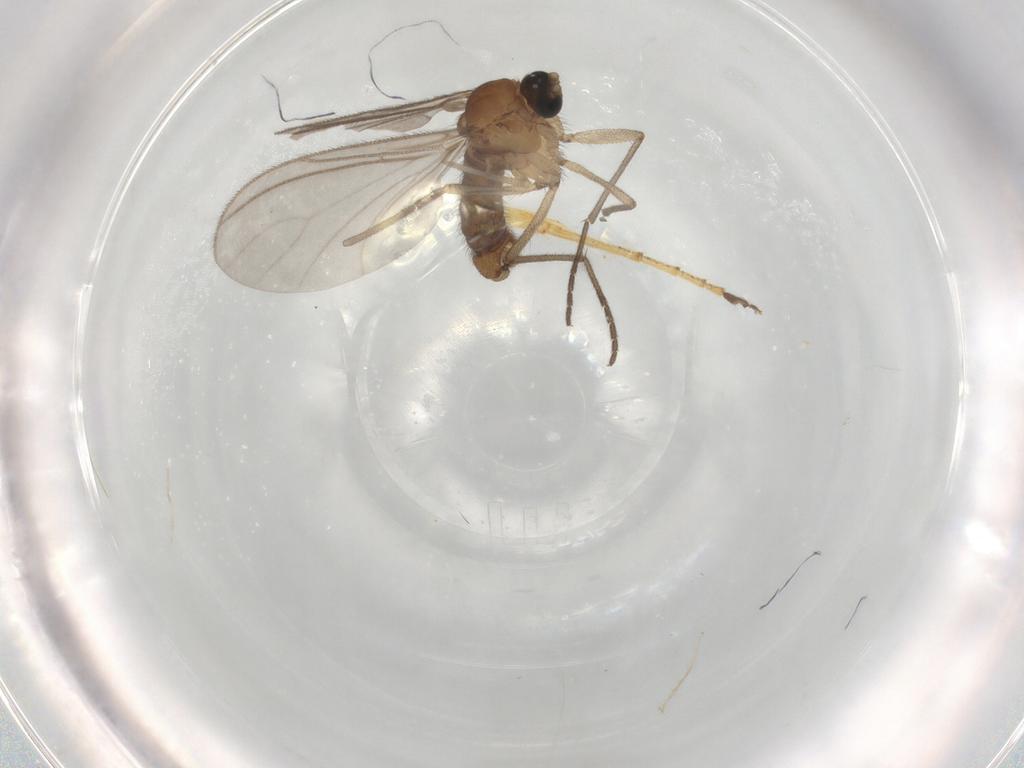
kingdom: Animalia
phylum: Arthropoda
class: Insecta
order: Diptera
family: Sciaridae
